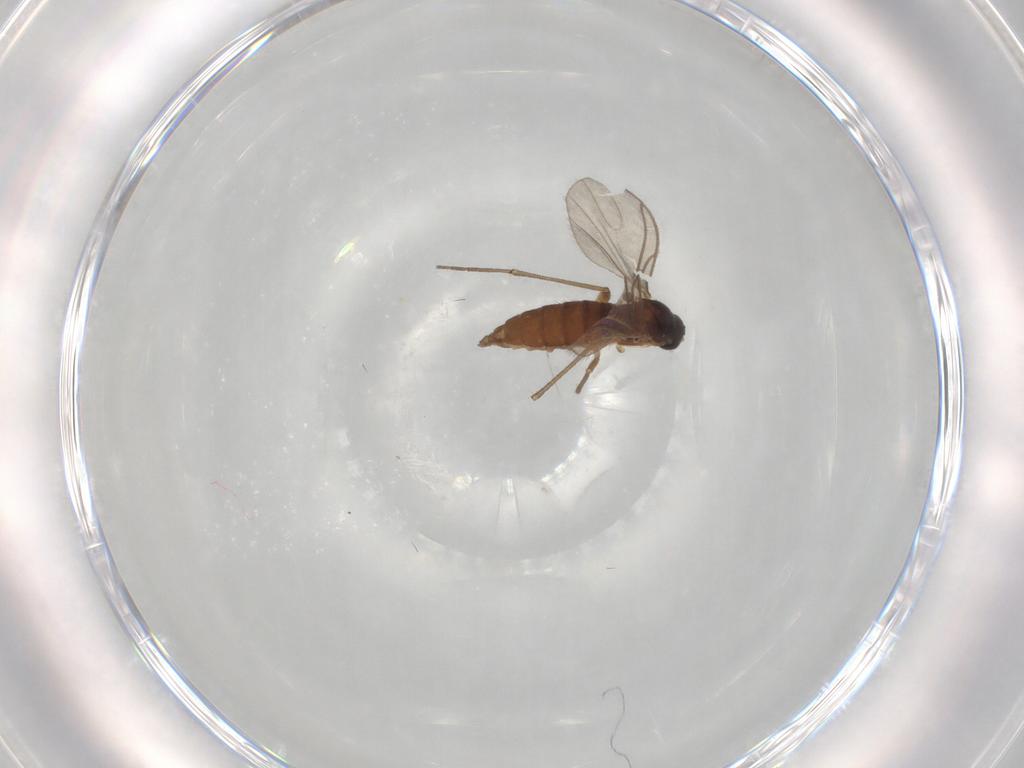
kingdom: Animalia
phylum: Arthropoda
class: Insecta
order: Diptera
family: Sciaridae
